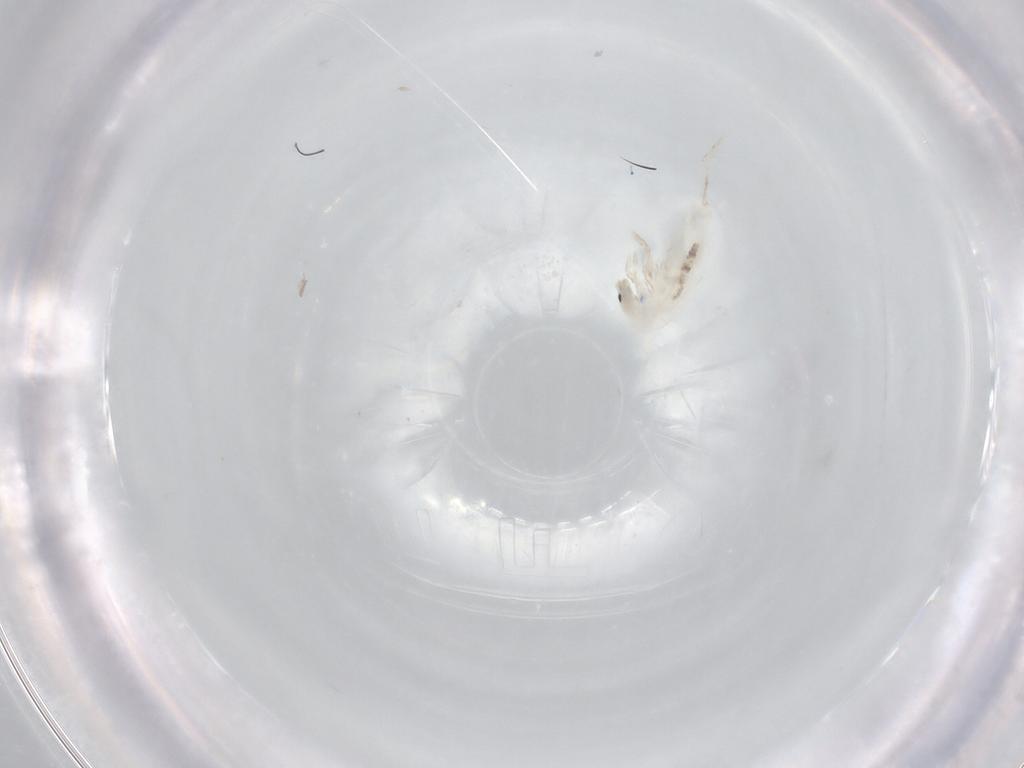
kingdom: Animalia
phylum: Arthropoda
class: Collembola
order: Entomobryomorpha
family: Entomobryidae
